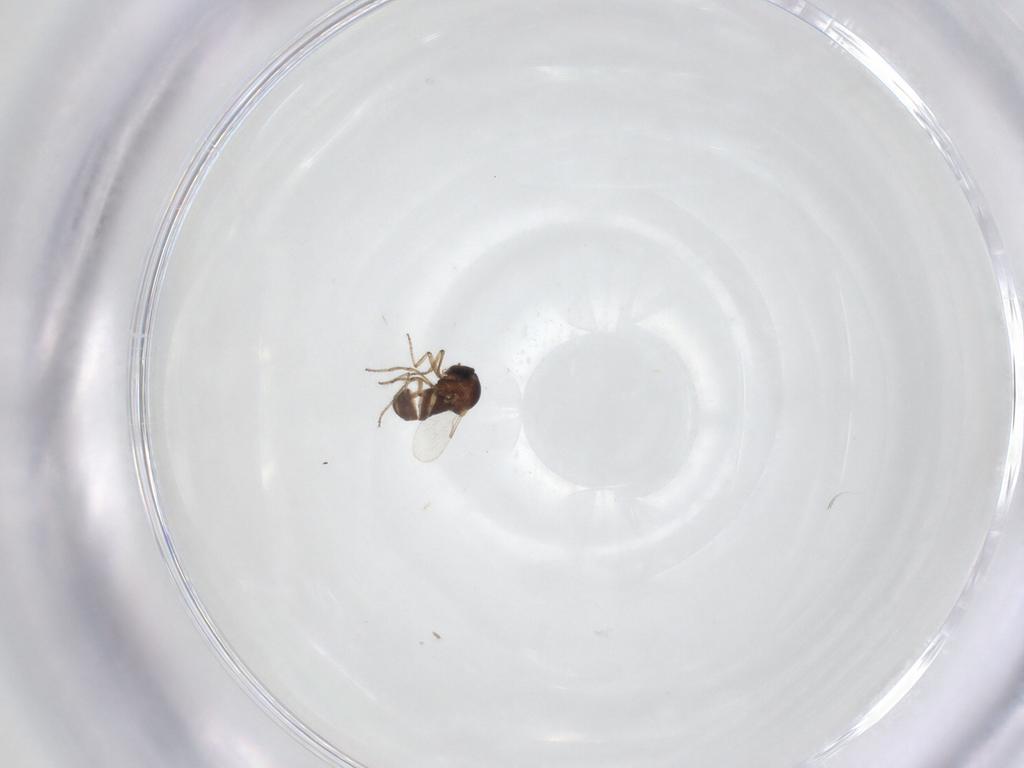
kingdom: Animalia
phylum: Arthropoda
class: Insecta
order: Diptera
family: Ceratopogonidae
